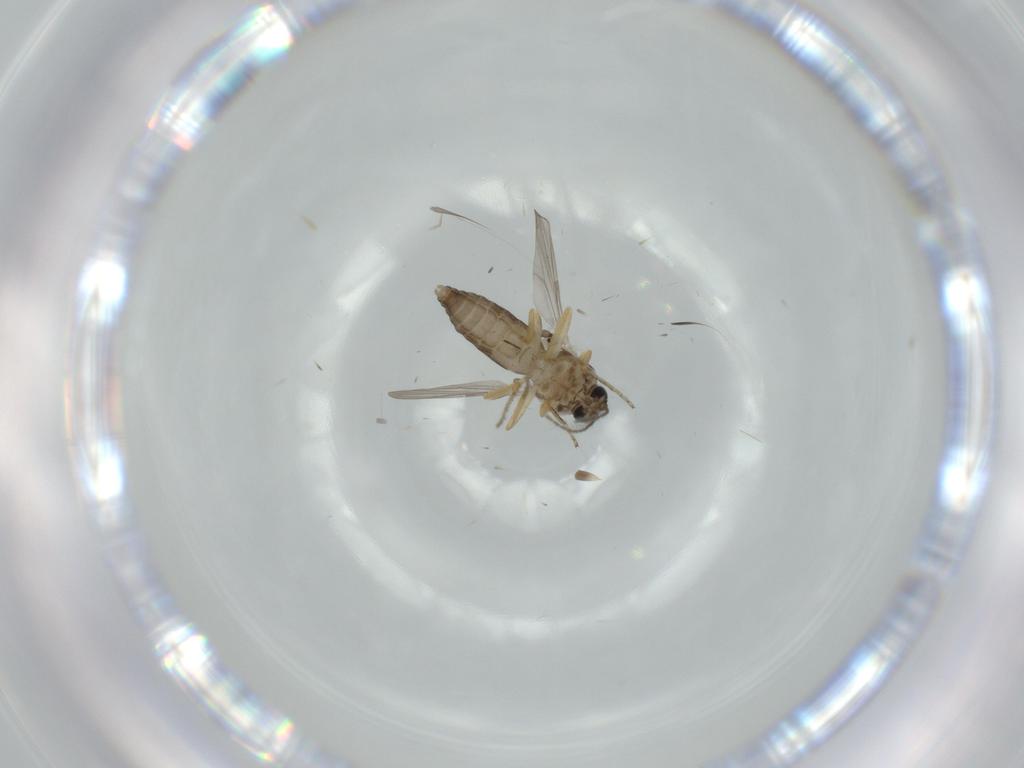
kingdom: Animalia
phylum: Arthropoda
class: Insecta
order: Diptera
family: Ceratopogonidae
